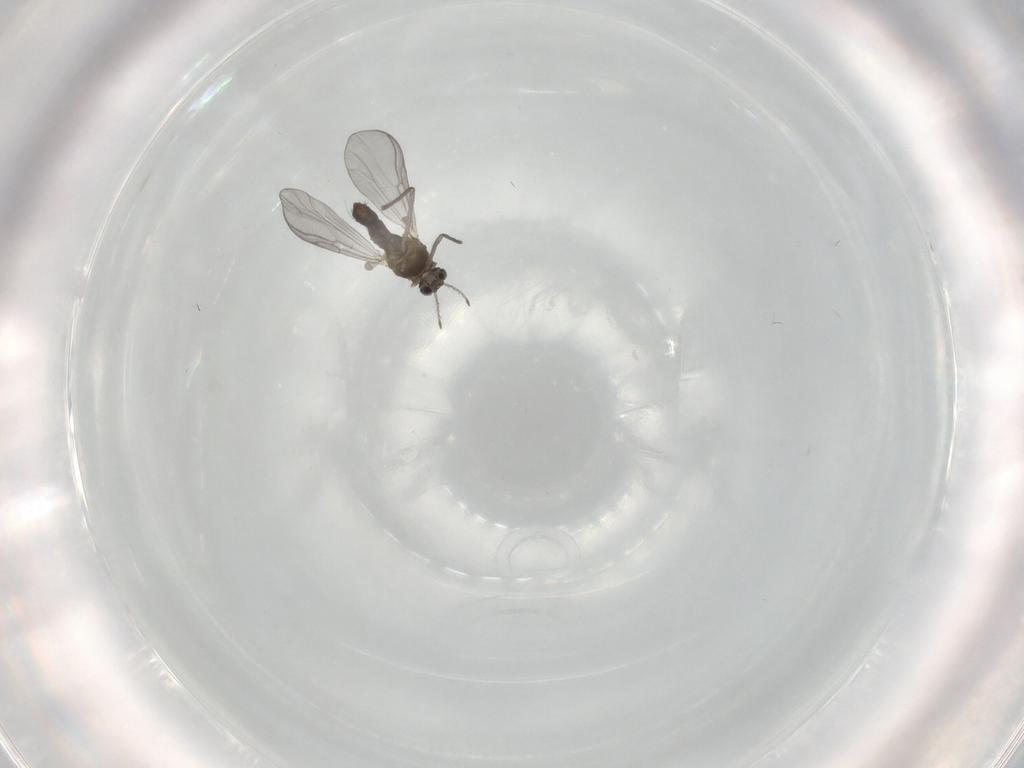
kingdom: Animalia
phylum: Arthropoda
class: Insecta
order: Diptera
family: Chironomidae
